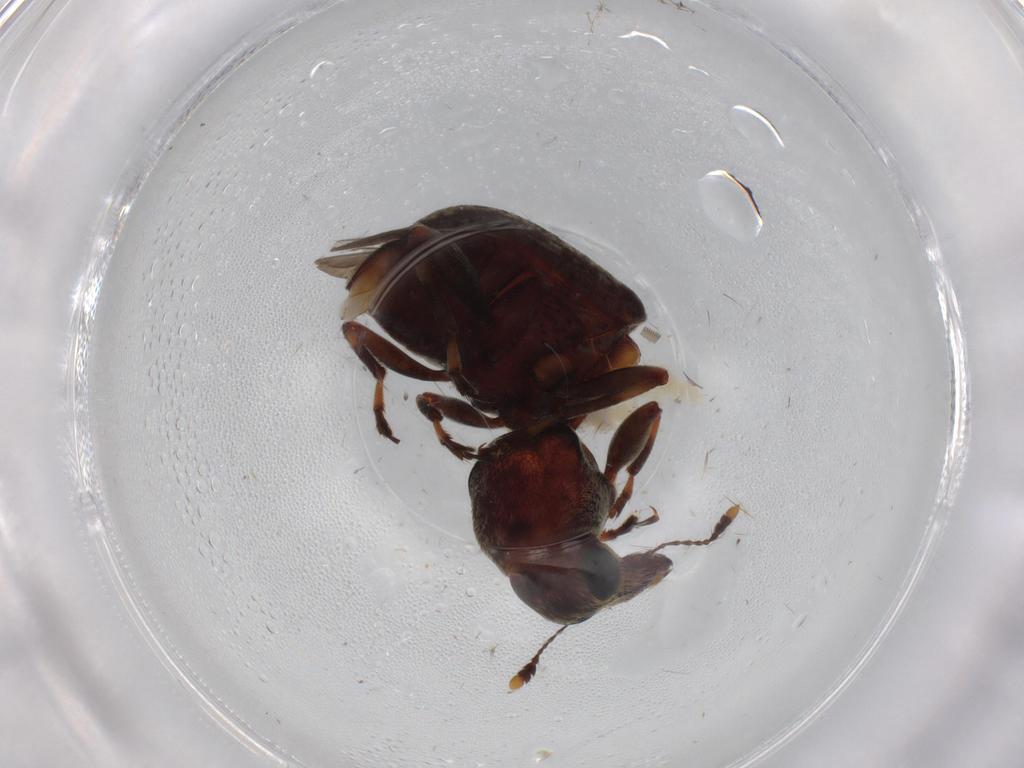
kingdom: Animalia
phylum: Arthropoda
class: Insecta
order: Coleoptera
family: Anthribidae
